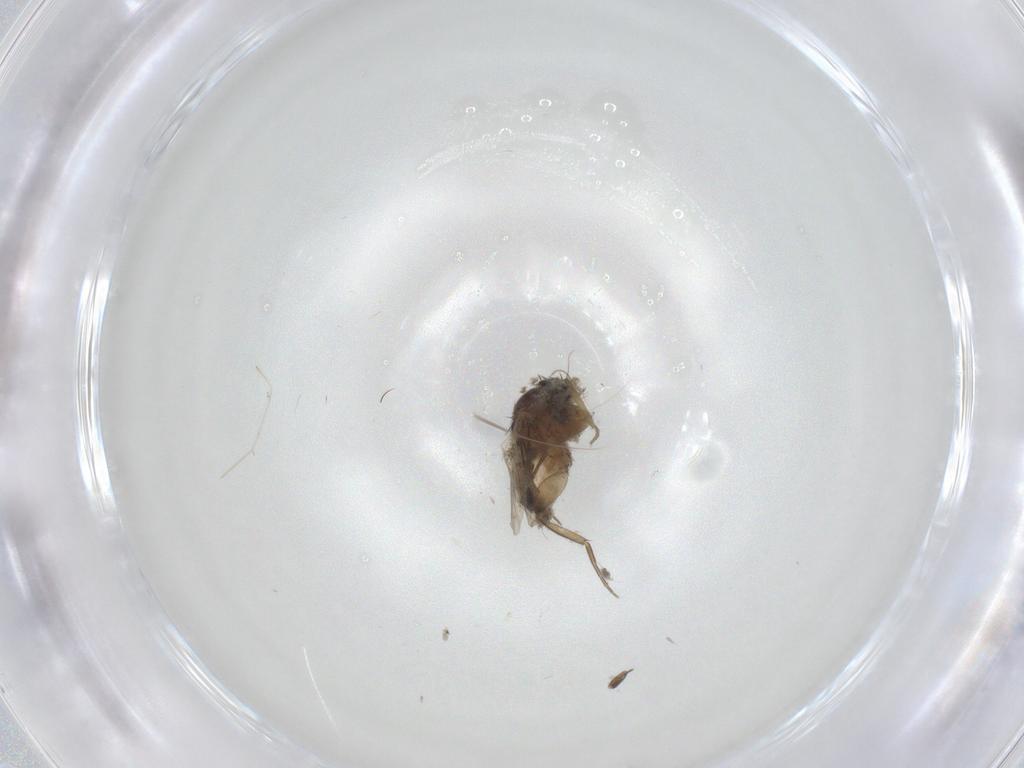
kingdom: Animalia
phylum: Arthropoda
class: Insecta
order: Diptera
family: Phoridae
